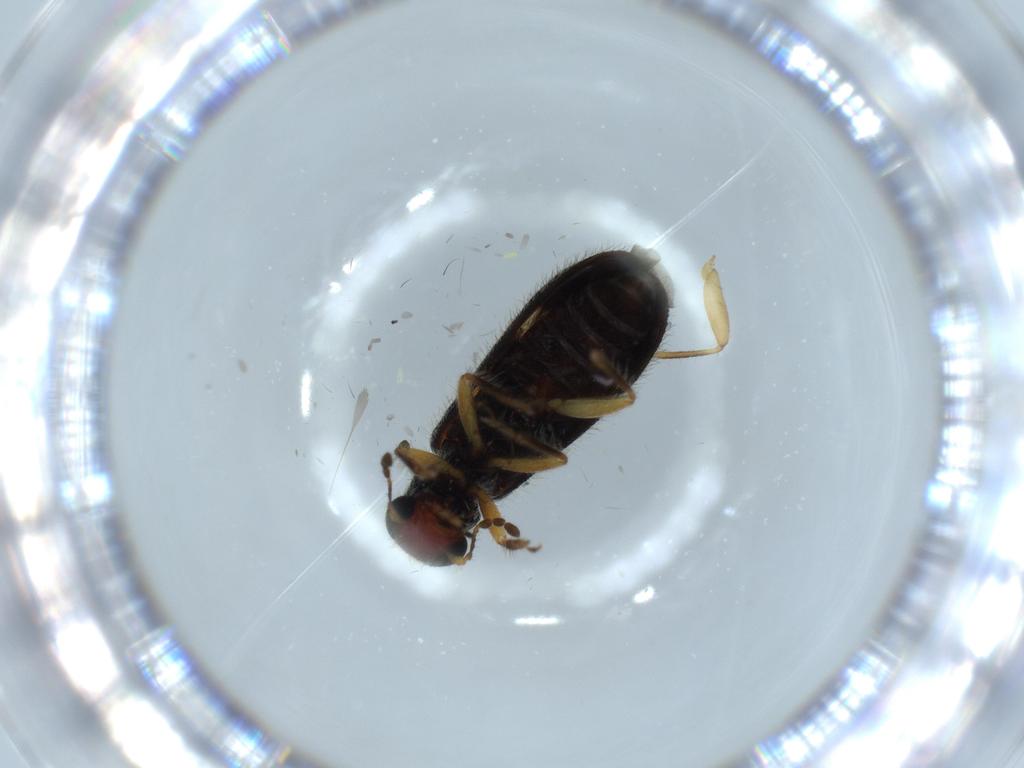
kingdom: Animalia
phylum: Arthropoda
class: Insecta
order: Coleoptera
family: Cleridae
